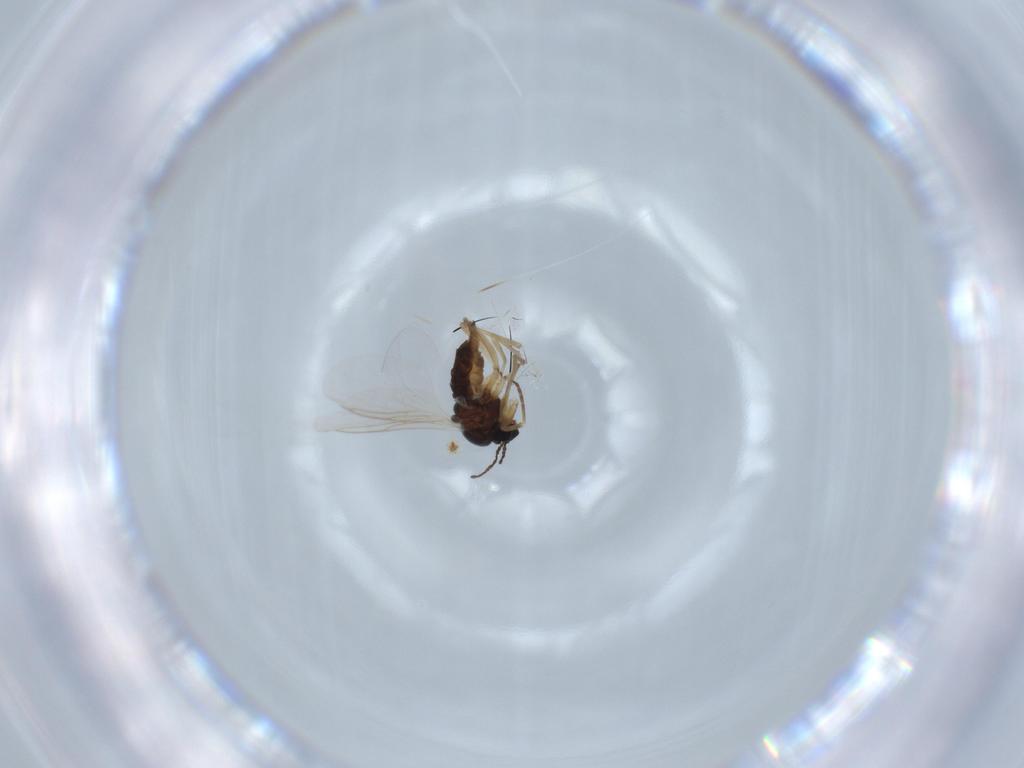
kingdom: Animalia
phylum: Arthropoda
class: Insecta
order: Diptera
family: Sciaridae
